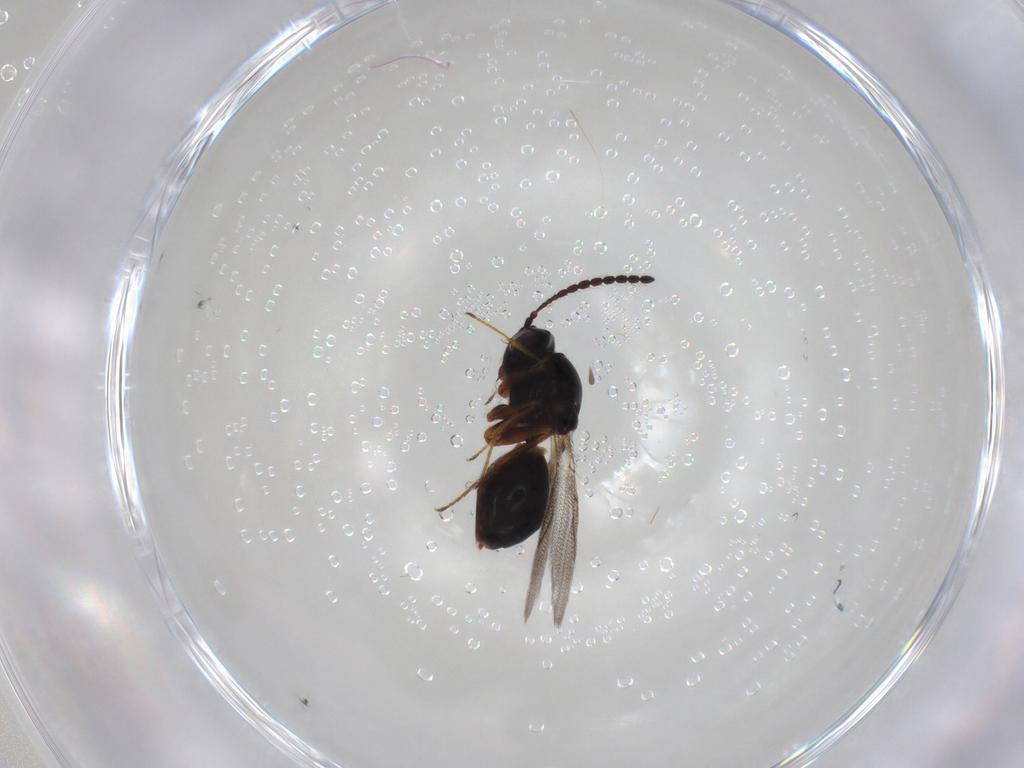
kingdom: Animalia
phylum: Arthropoda
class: Insecta
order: Hymenoptera
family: Figitidae
